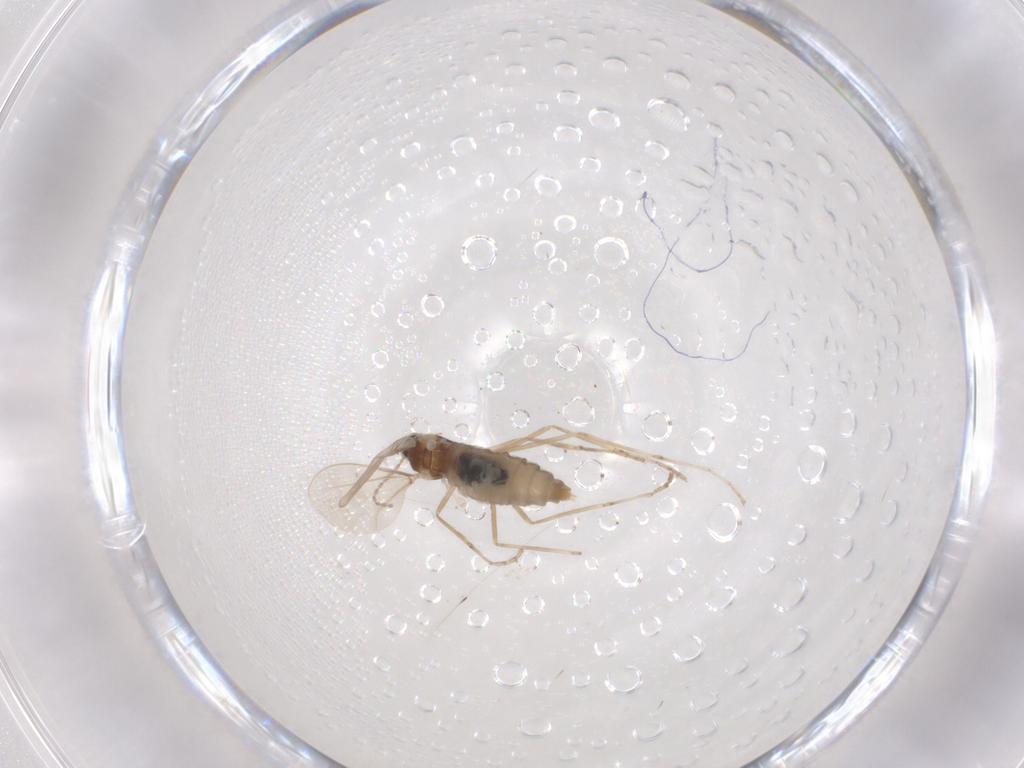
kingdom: Animalia
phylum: Arthropoda
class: Insecta
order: Diptera
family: Cecidomyiidae
